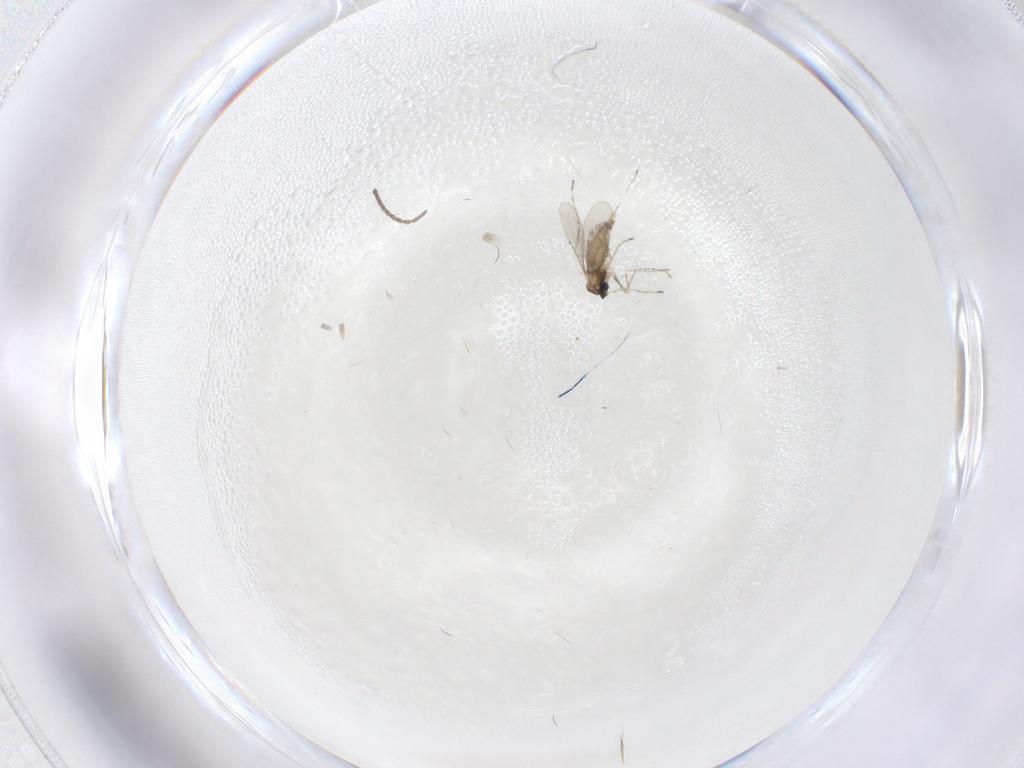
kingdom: Animalia
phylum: Arthropoda
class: Insecta
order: Diptera
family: Chironomidae
